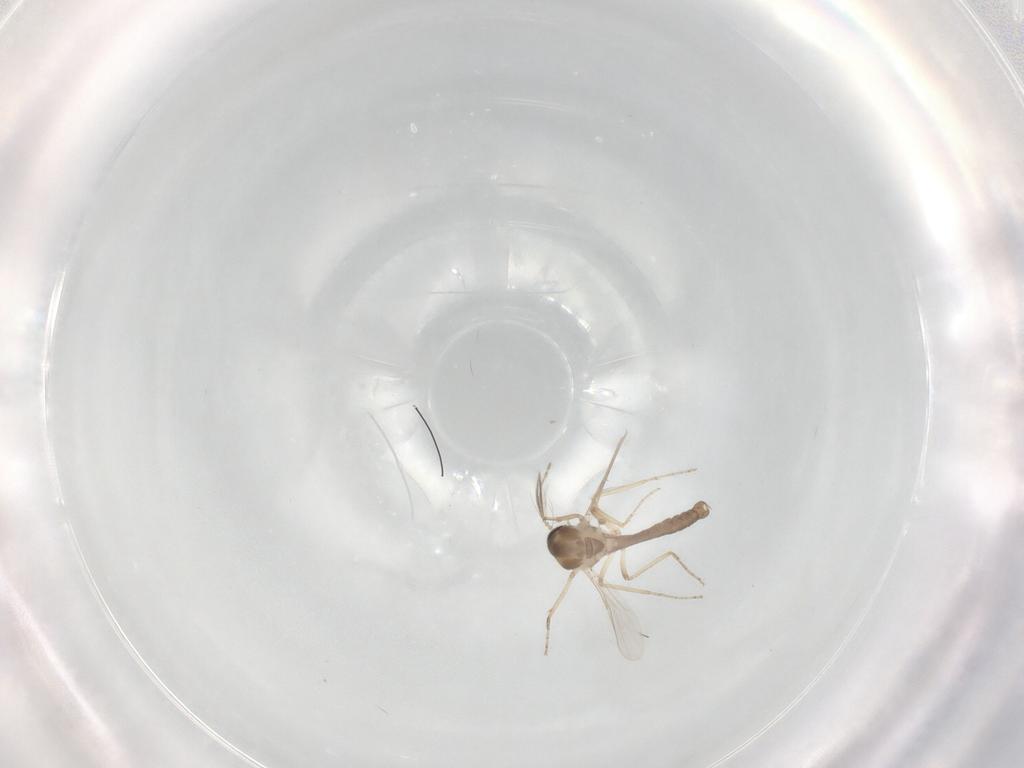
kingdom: Animalia
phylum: Arthropoda
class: Insecta
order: Diptera
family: Ceratopogonidae
